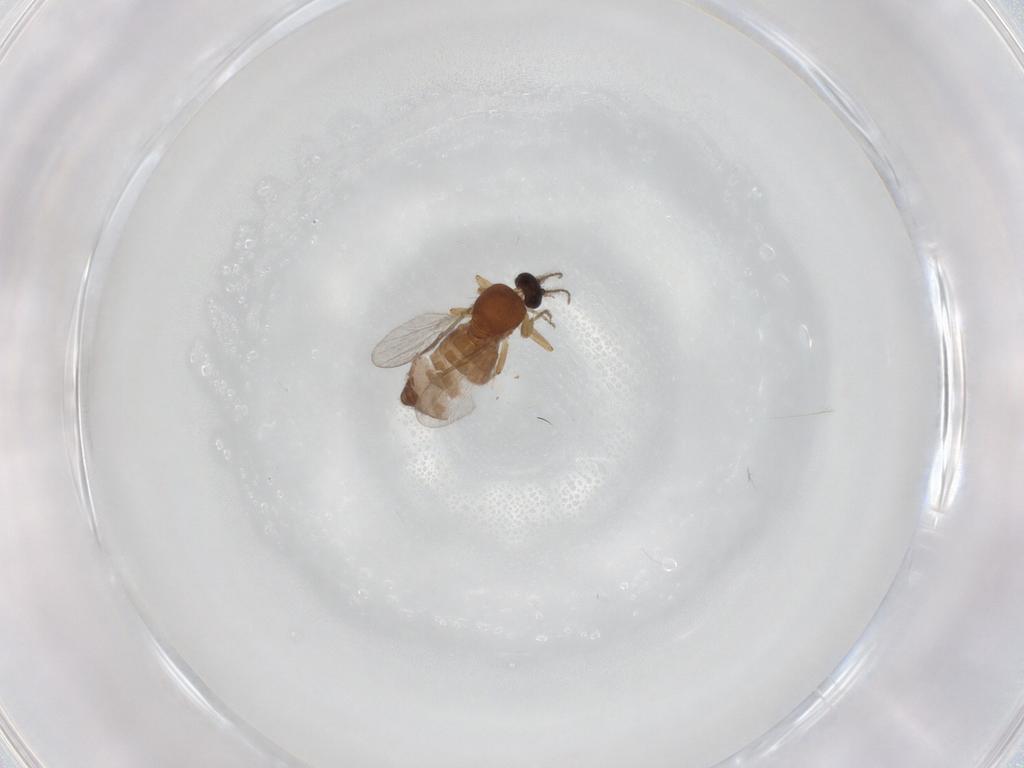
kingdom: Animalia
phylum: Arthropoda
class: Insecta
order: Diptera
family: Ceratopogonidae
